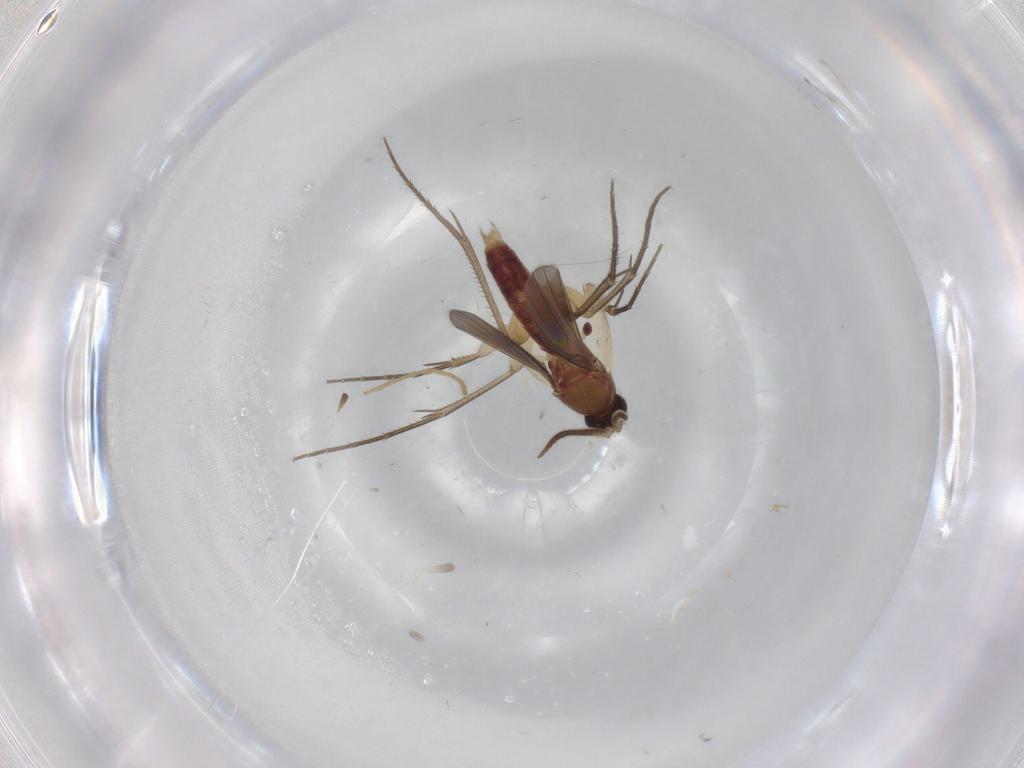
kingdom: Animalia
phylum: Arthropoda
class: Insecta
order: Diptera
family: Mycetophilidae
